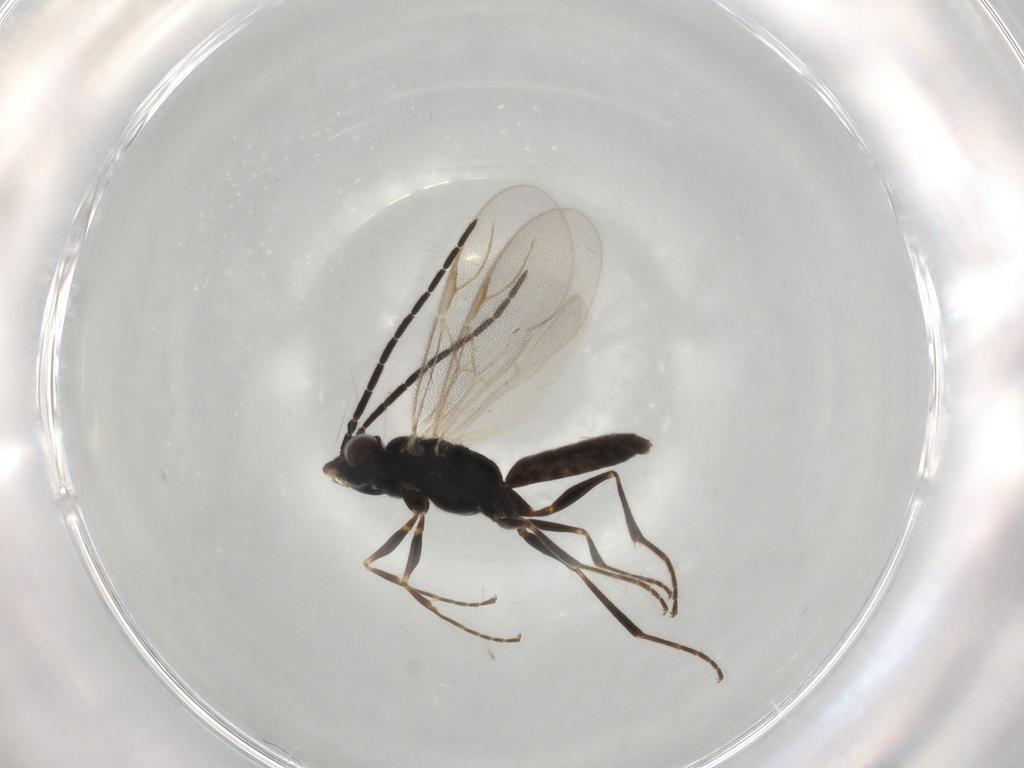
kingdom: Animalia
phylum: Arthropoda
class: Insecta
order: Hymenoptera
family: Dryinidae
